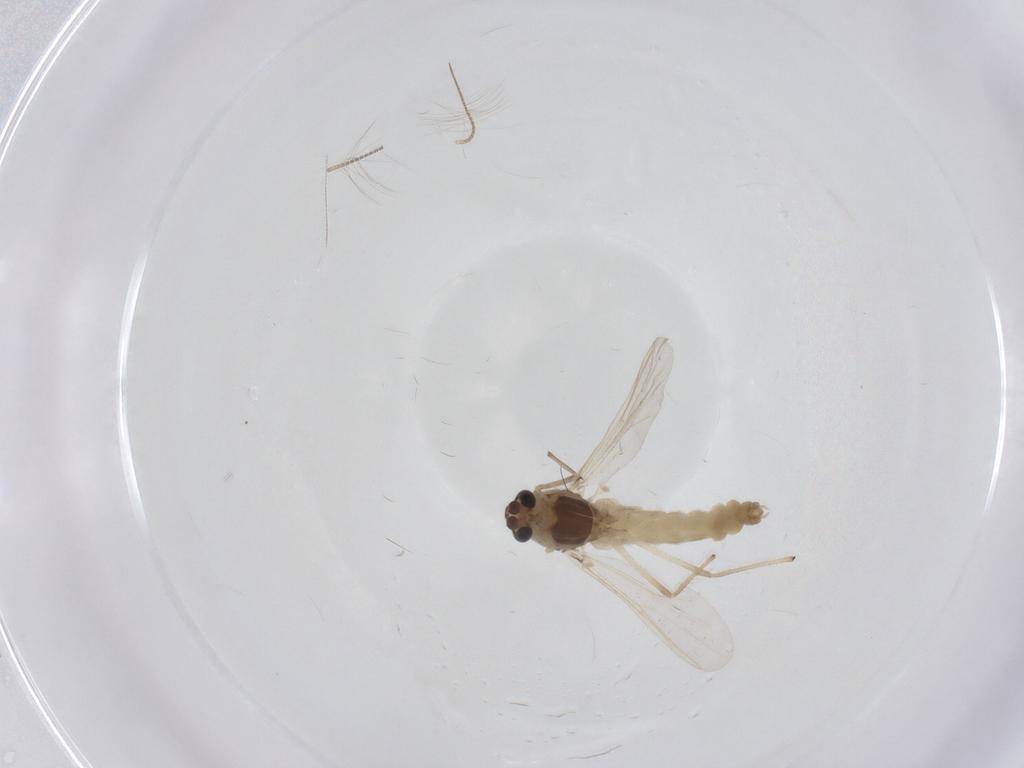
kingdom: Animalia
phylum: Arthropoda
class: Insecta
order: Diptera
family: Chironomidae
